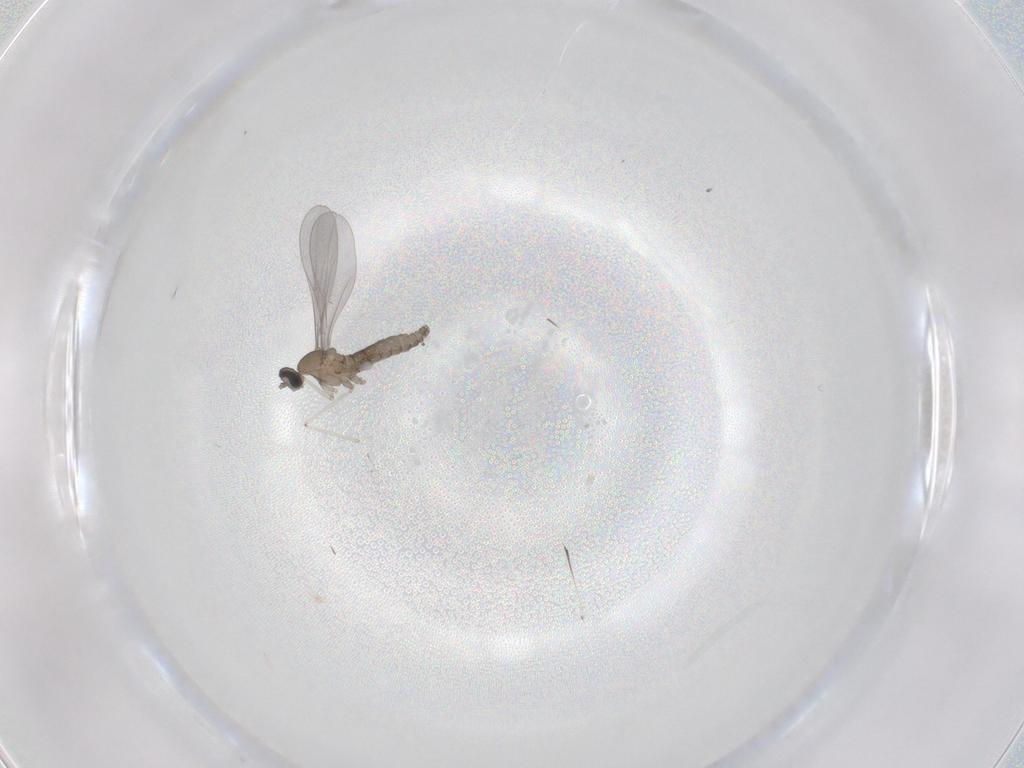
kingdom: Animalia
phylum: Arthropoda
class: Insecta
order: Diptera
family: Cecidomyiidae
